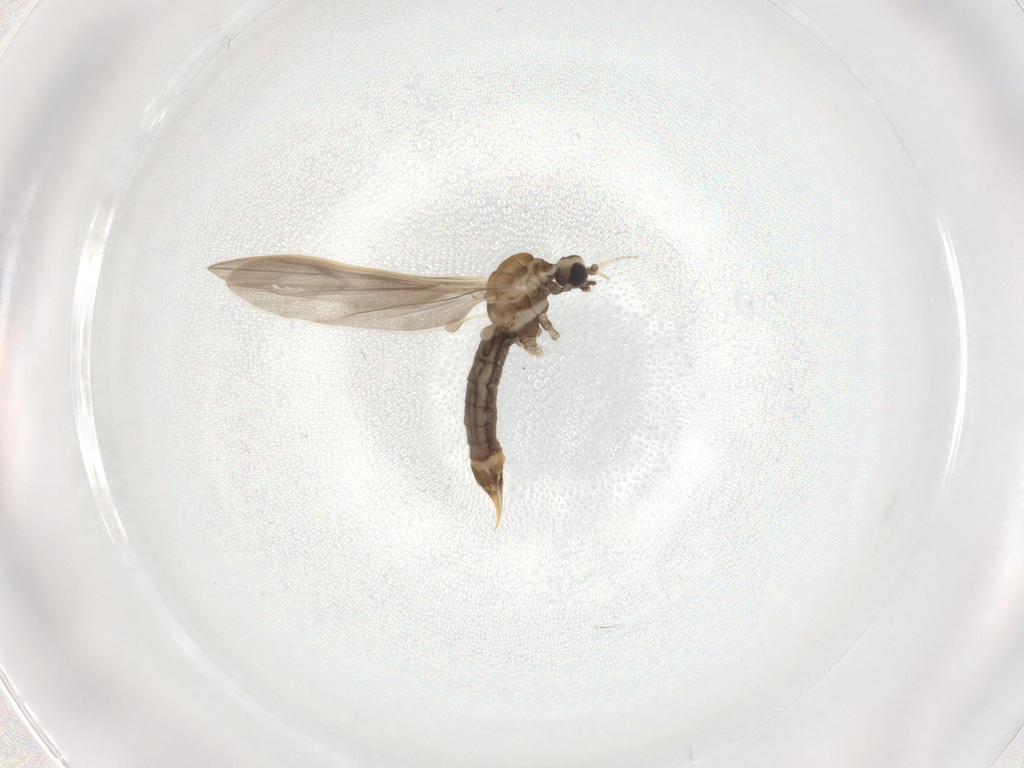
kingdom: Animalia
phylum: Arthropoda
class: Insecta
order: Diptera
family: Limoniidae
